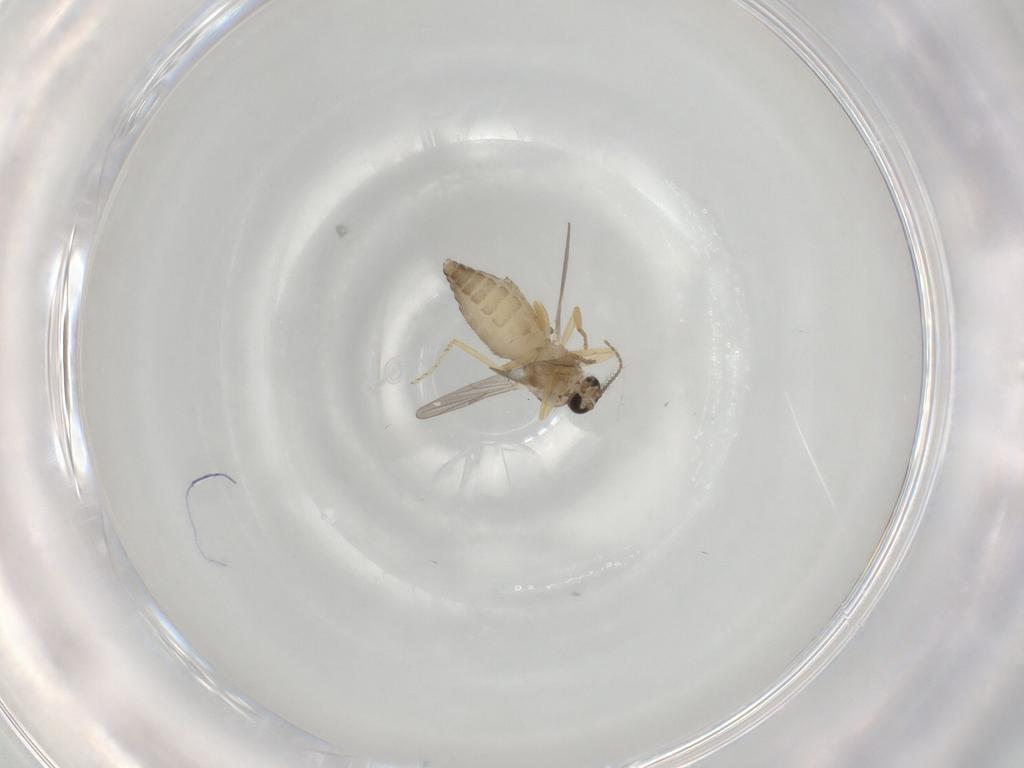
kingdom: Animalia
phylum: Arthropoda
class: Insecta
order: Diptera
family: Ceratopogonidae
